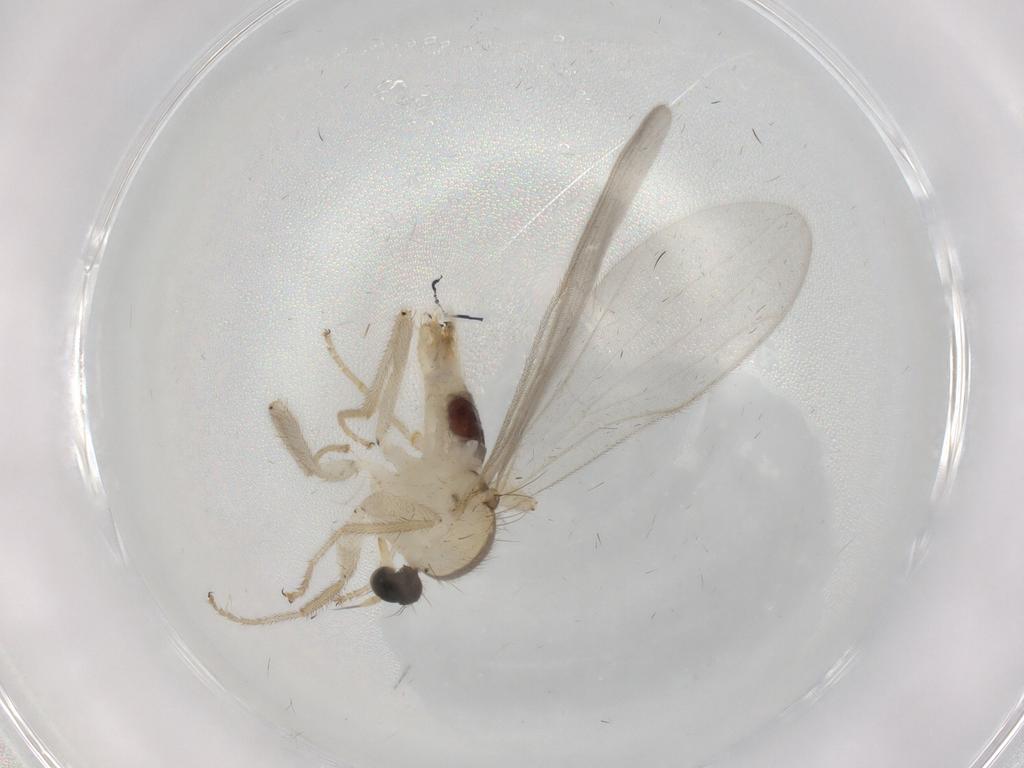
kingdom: Animalia
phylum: Arthropoda
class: Insecta
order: Diptera
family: Hybotidae
